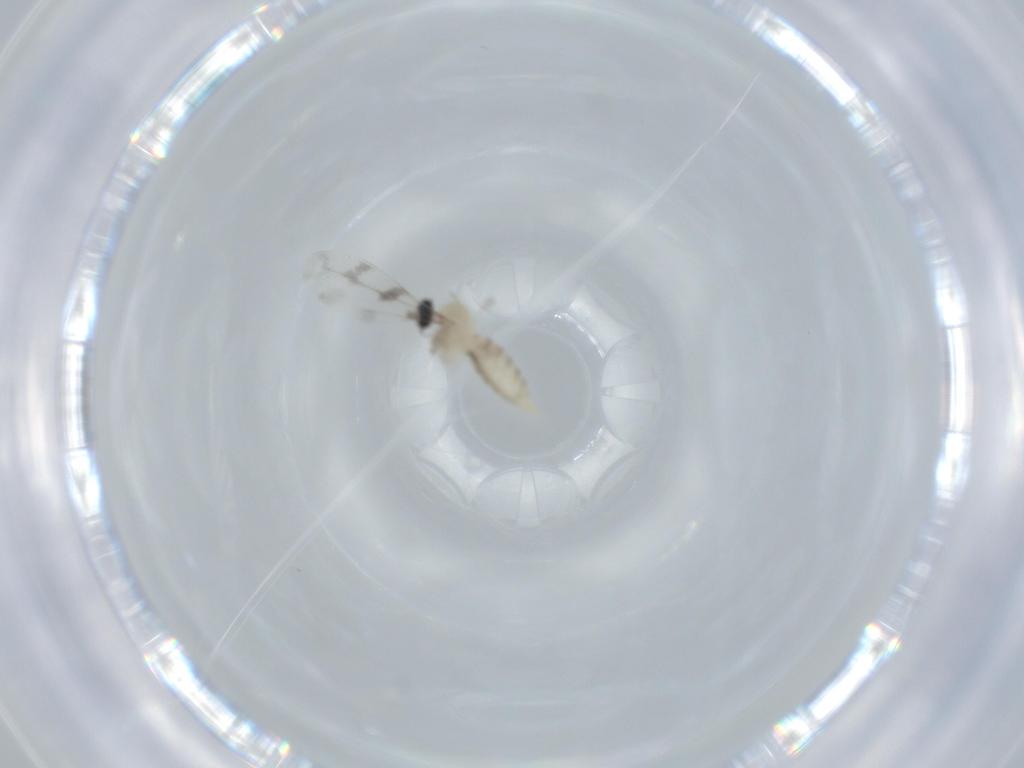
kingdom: Animalia
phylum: Arthropoda
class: Insecta
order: Diptera
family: Cecidomyiidae
